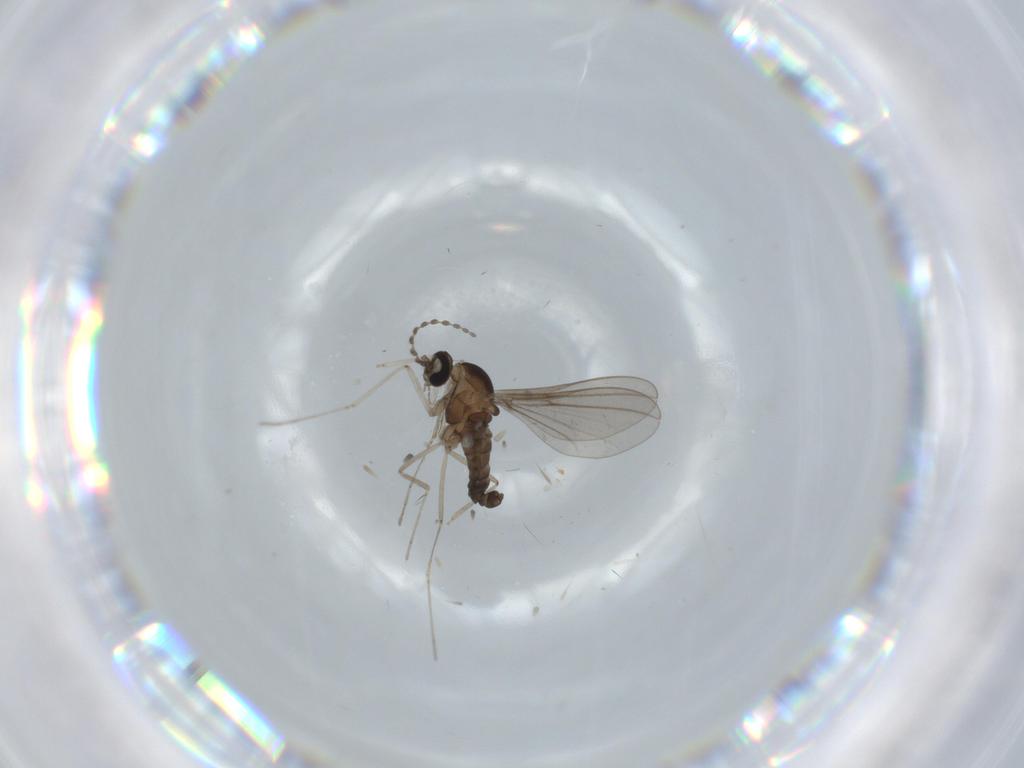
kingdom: Animalia
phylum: Arthropoda
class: Insecta
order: Diptera
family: Cecidomyiidae
